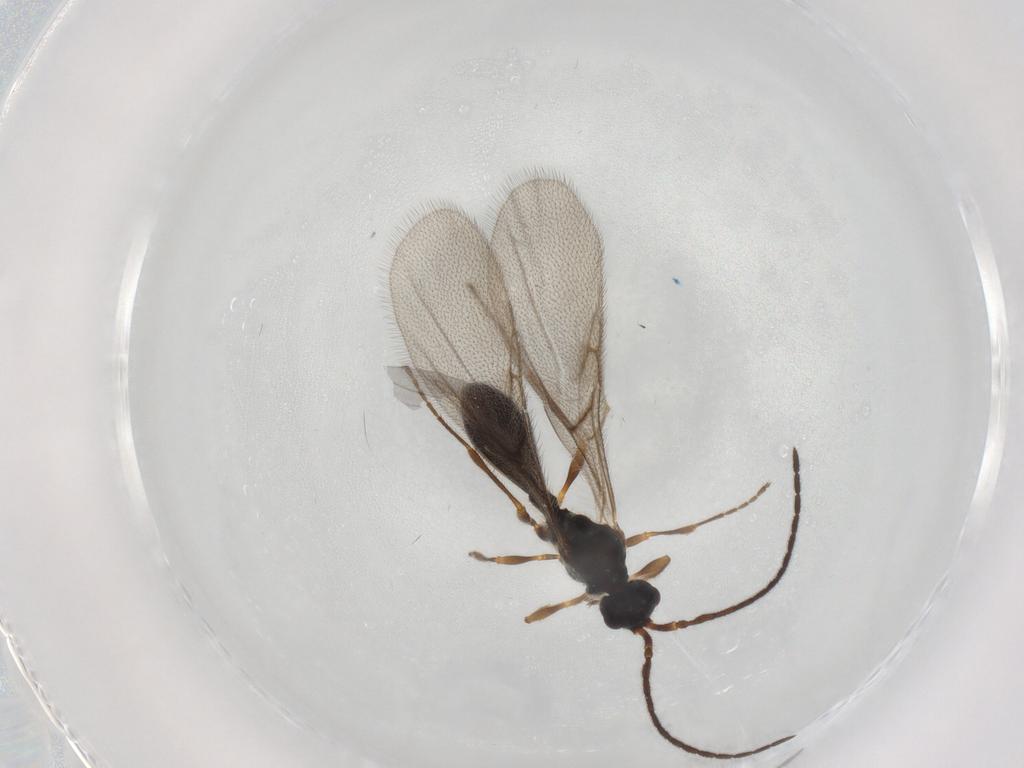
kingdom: Animalia
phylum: Arthropoda
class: Insecta
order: Hymenoptera
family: Diapriidae
